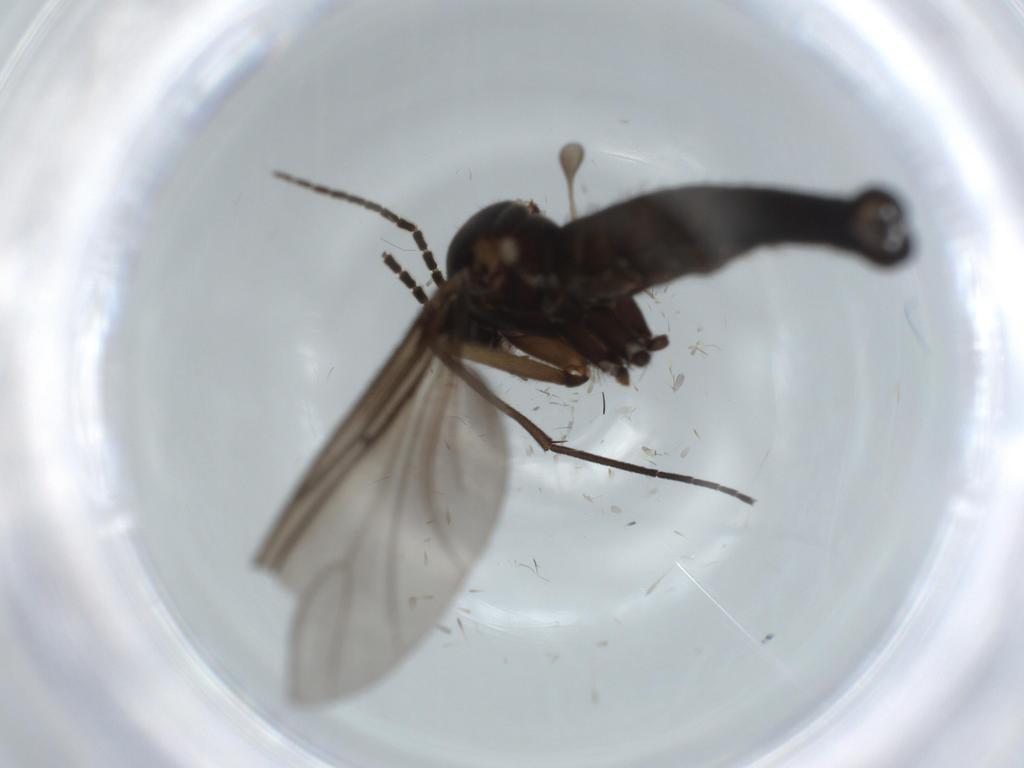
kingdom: Animalia
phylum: Arthropoda
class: Insecta
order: Diptera
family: Sciaridae
